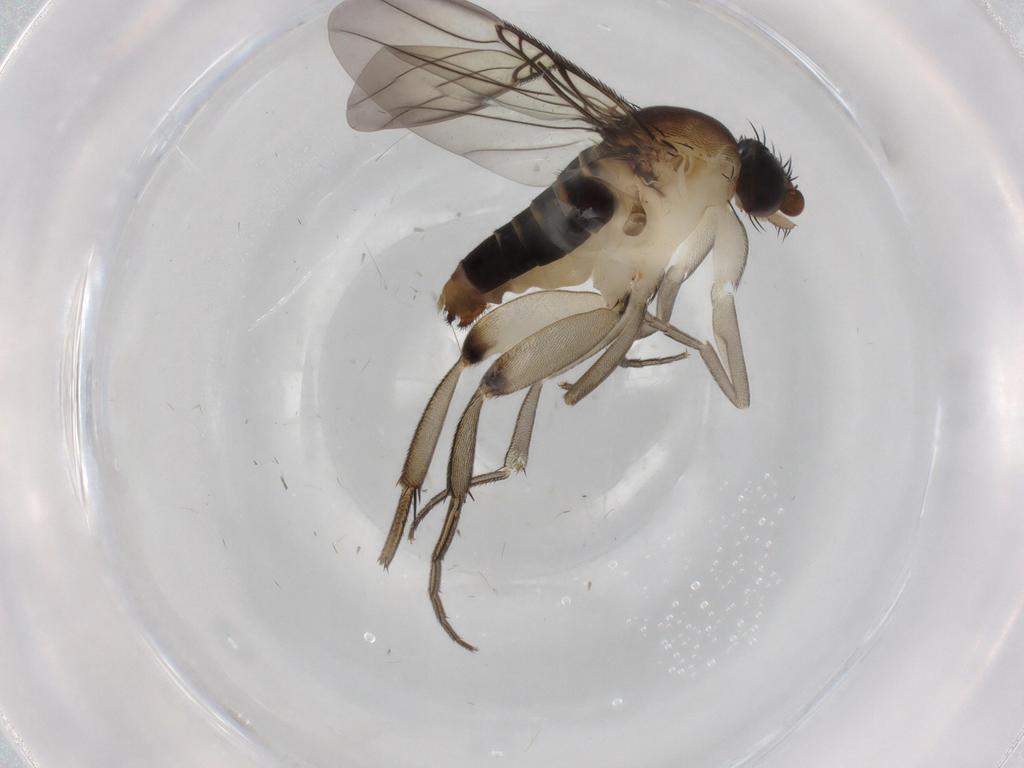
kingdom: Animalia
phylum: Arthropoda
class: Insecta
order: Diptera
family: Phoridae
